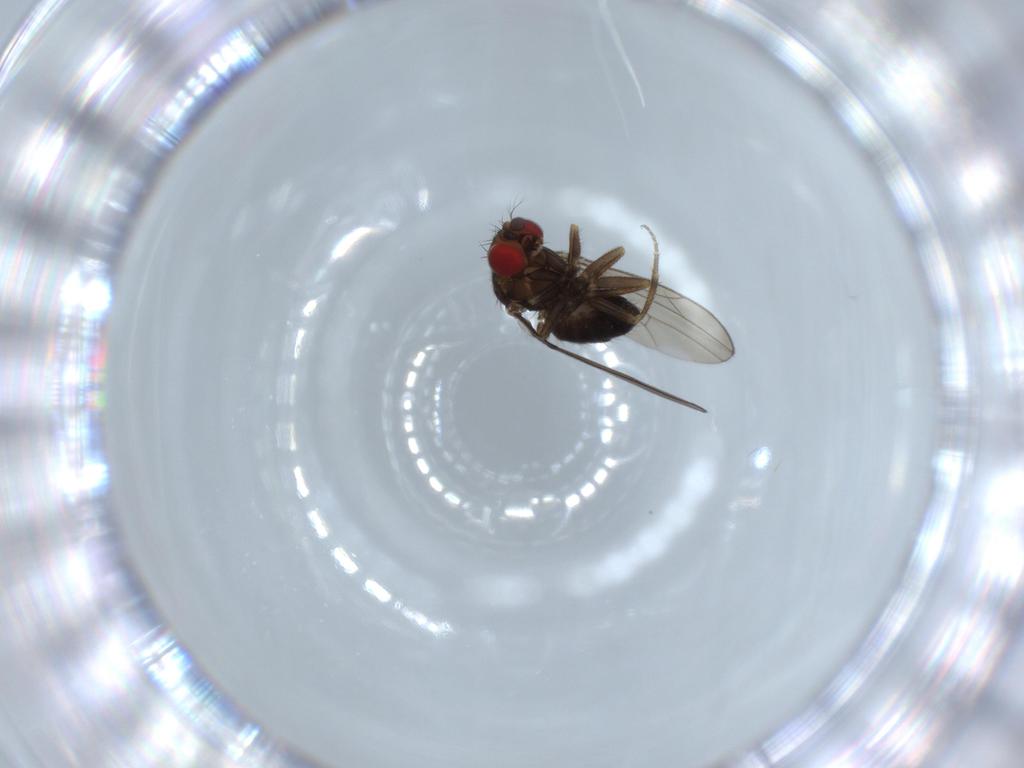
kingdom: Animalia
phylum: Arthropoda
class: Insecta
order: Diptera
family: Drosophilidae
